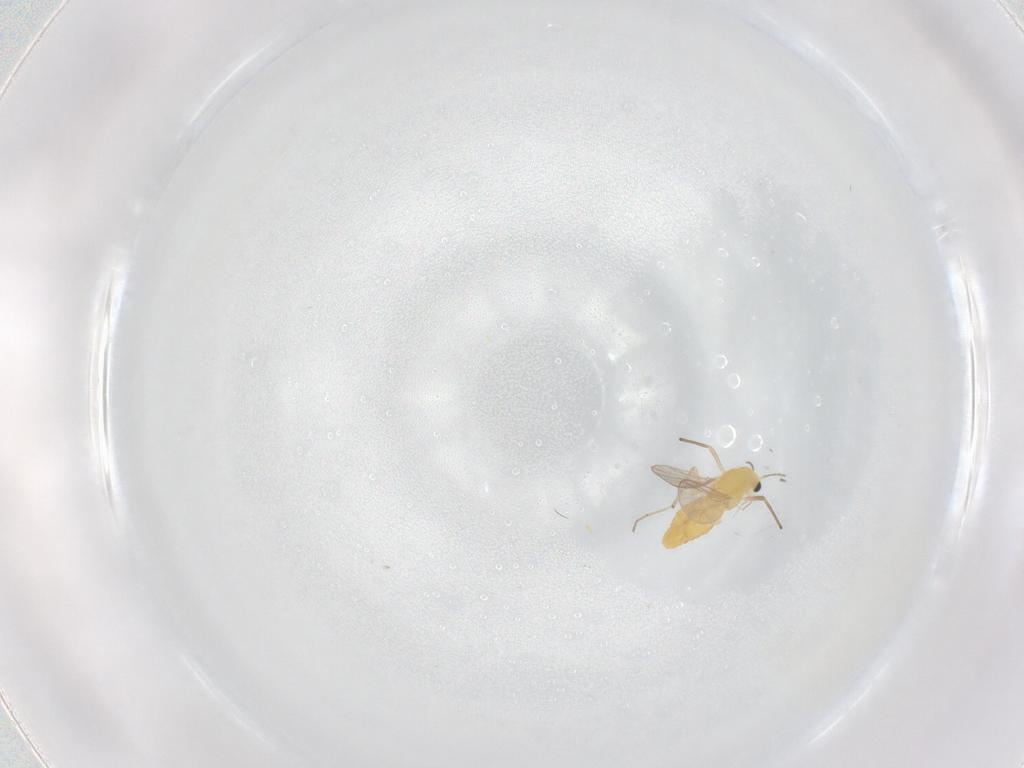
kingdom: Animalia
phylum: Arthropoda
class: Insecta
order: Diptera
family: Chironomidae
